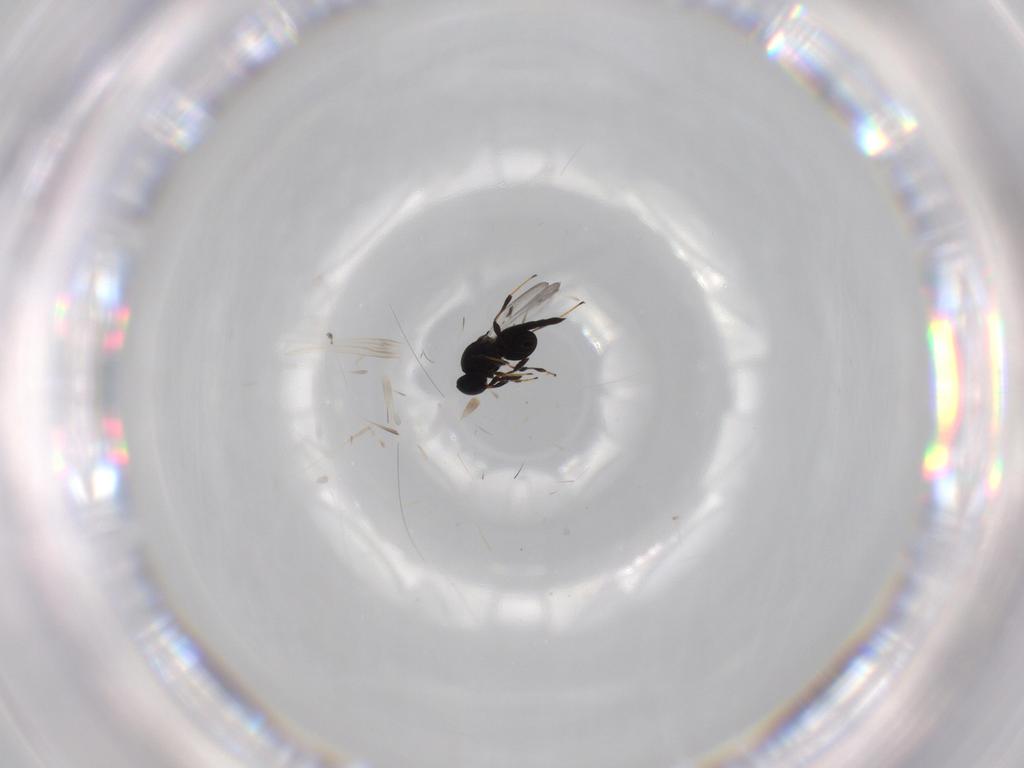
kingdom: Animalia
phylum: Arthropoda
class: Insecta
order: Hymenoptera
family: Platygastridae
